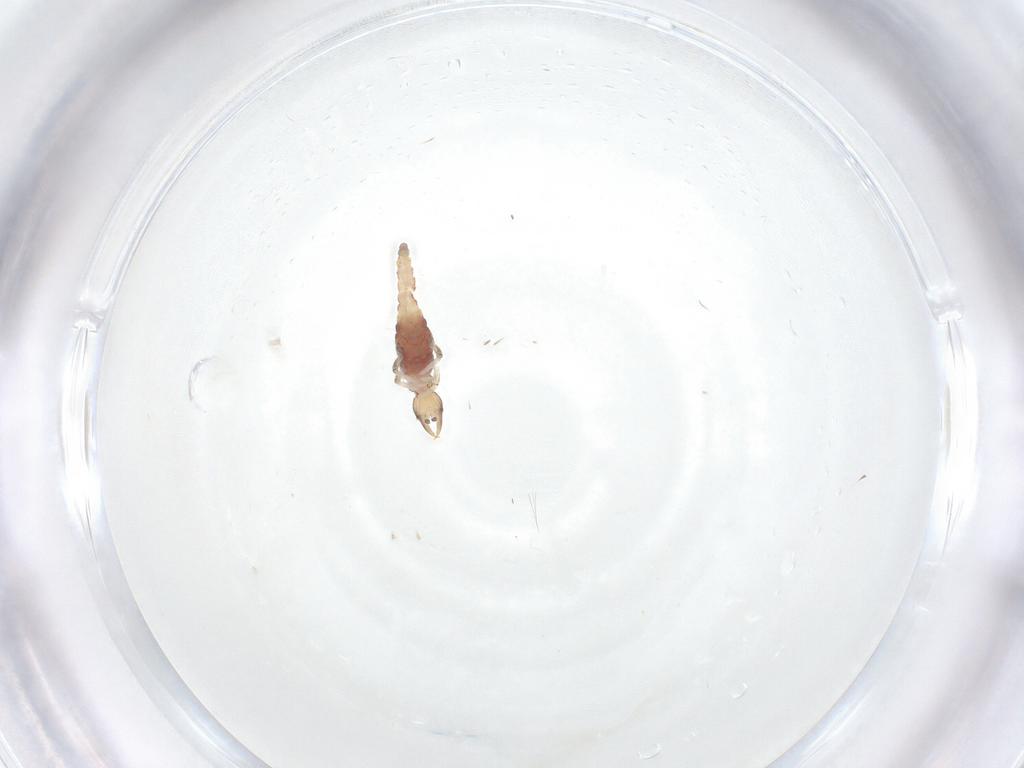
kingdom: Animalia
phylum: Arthropoda
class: Insecta
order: Neuroptera
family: Hemerobiidae
